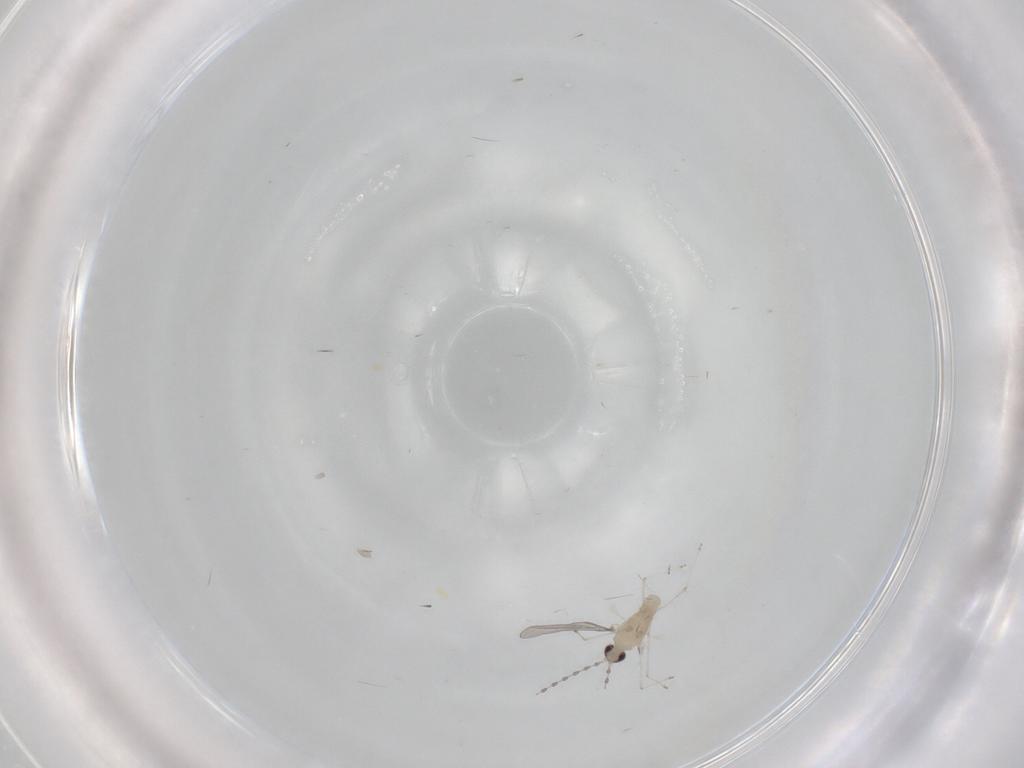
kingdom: Animalia
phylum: Arthropoda
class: Insecta
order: Diptera
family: Cecidomyiidae
